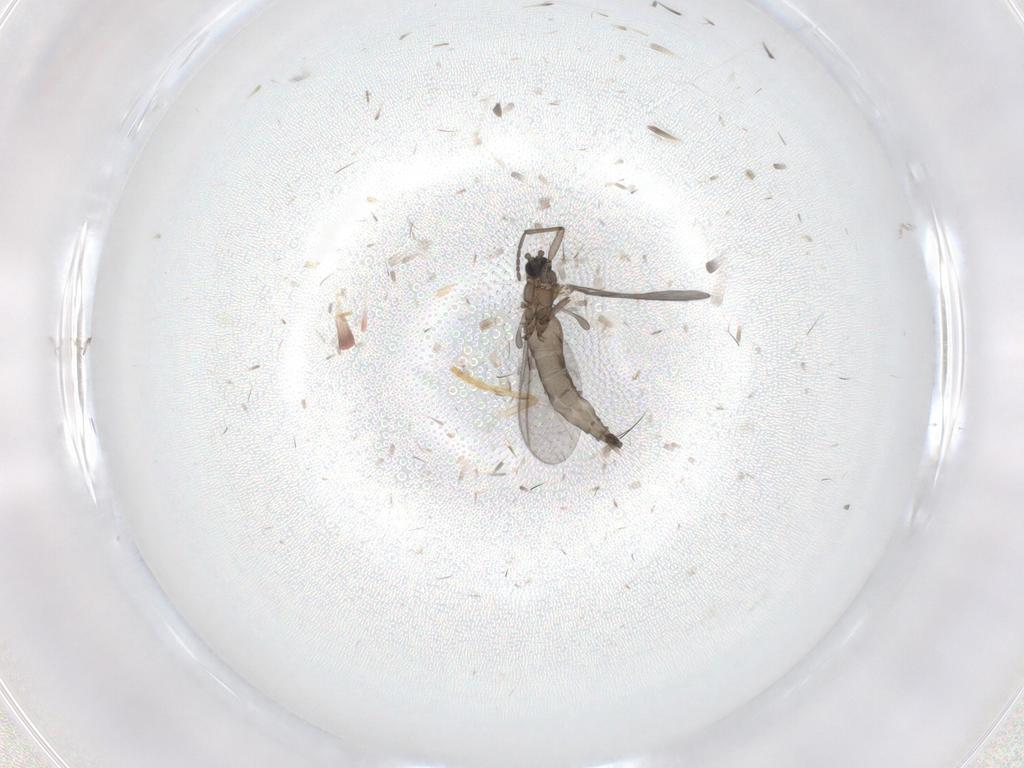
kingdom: Animalia
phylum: Arthropoda
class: Insecta
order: Diptera
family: Sciaridae
